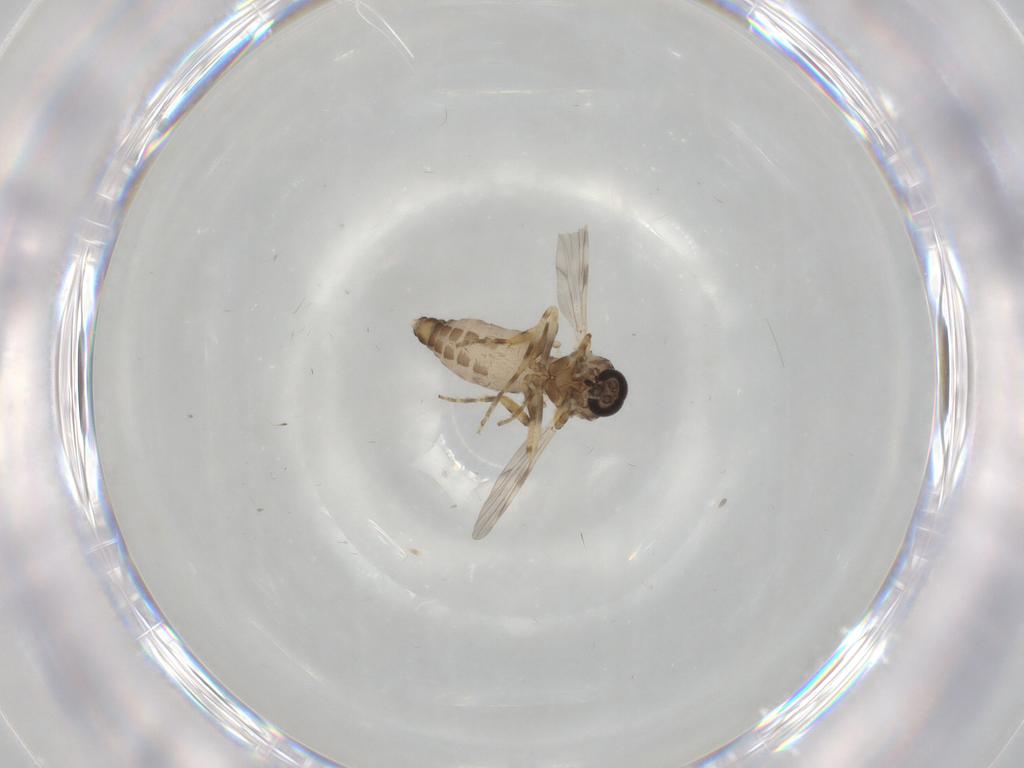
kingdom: Animalia
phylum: Arthropoda
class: Insecta
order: Diptera
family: Ceratopogonidae
